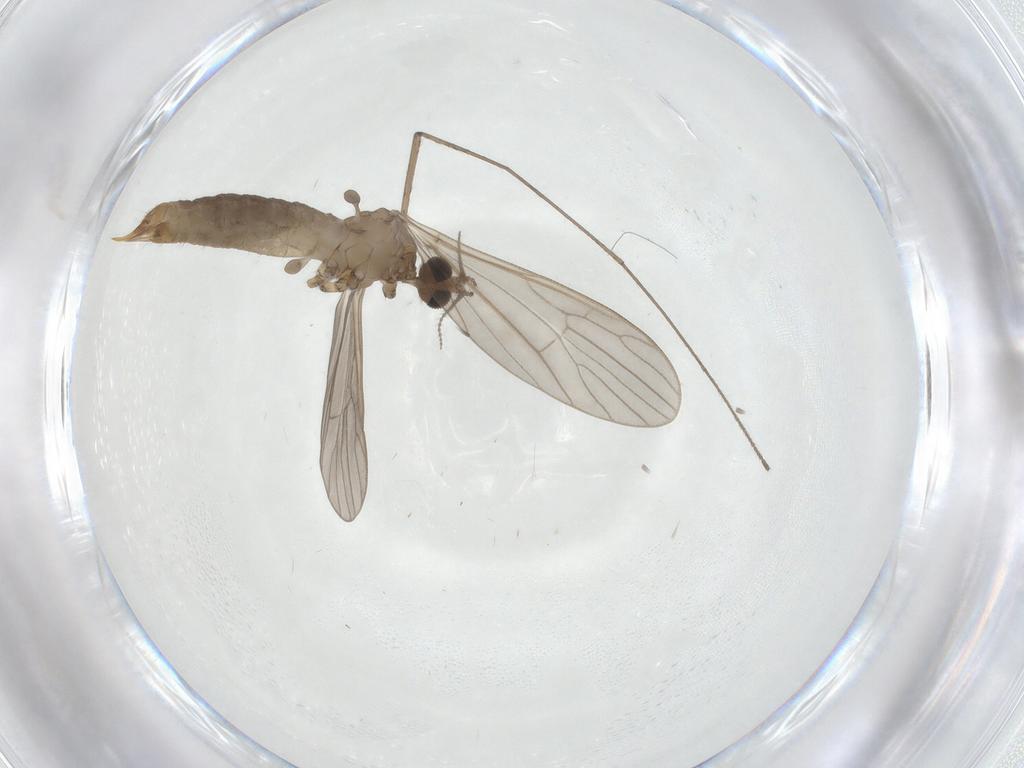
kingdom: Animalia
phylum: Arthropoda
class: Insecta
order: Diptera
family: Limoniidae
